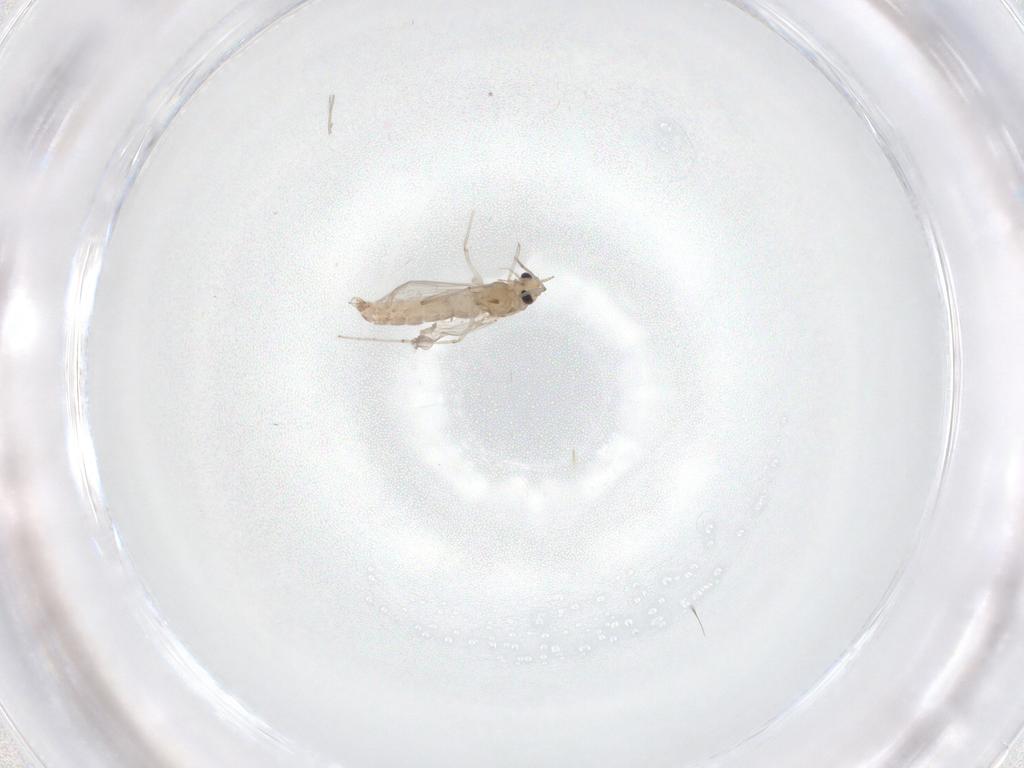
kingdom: Animalia
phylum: Arthropoda
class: Insecta
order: Diptera
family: Chironomidae
